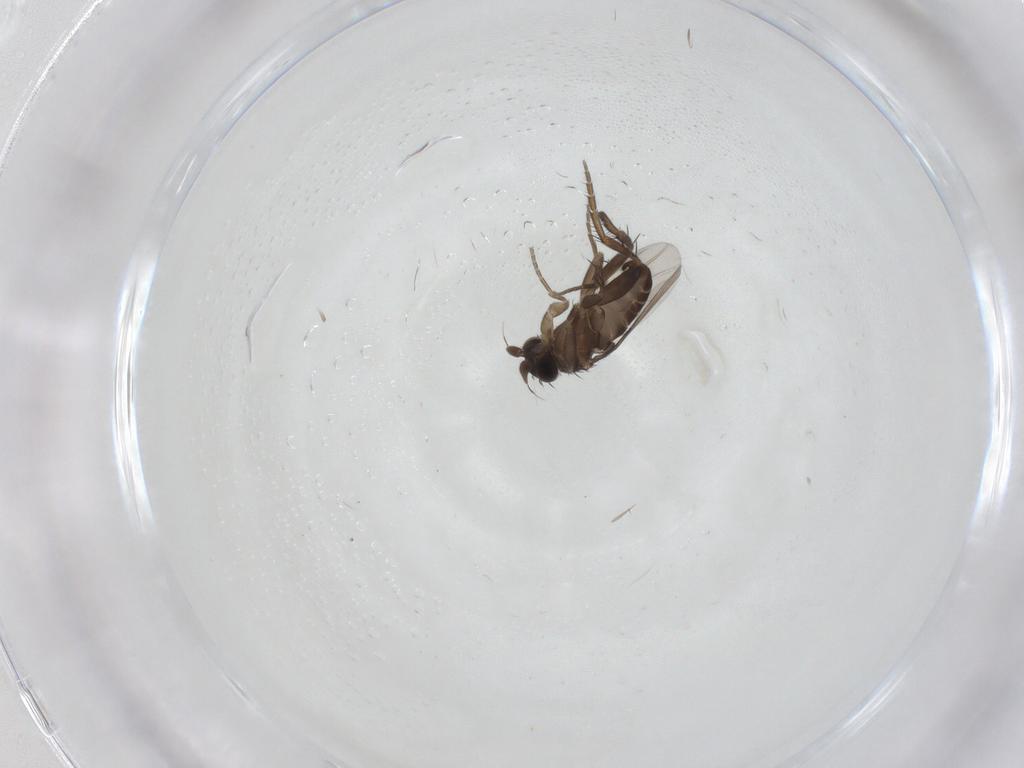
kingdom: Animalia
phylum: Arthropoda
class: Insecta
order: Diptera
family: Phoridae
